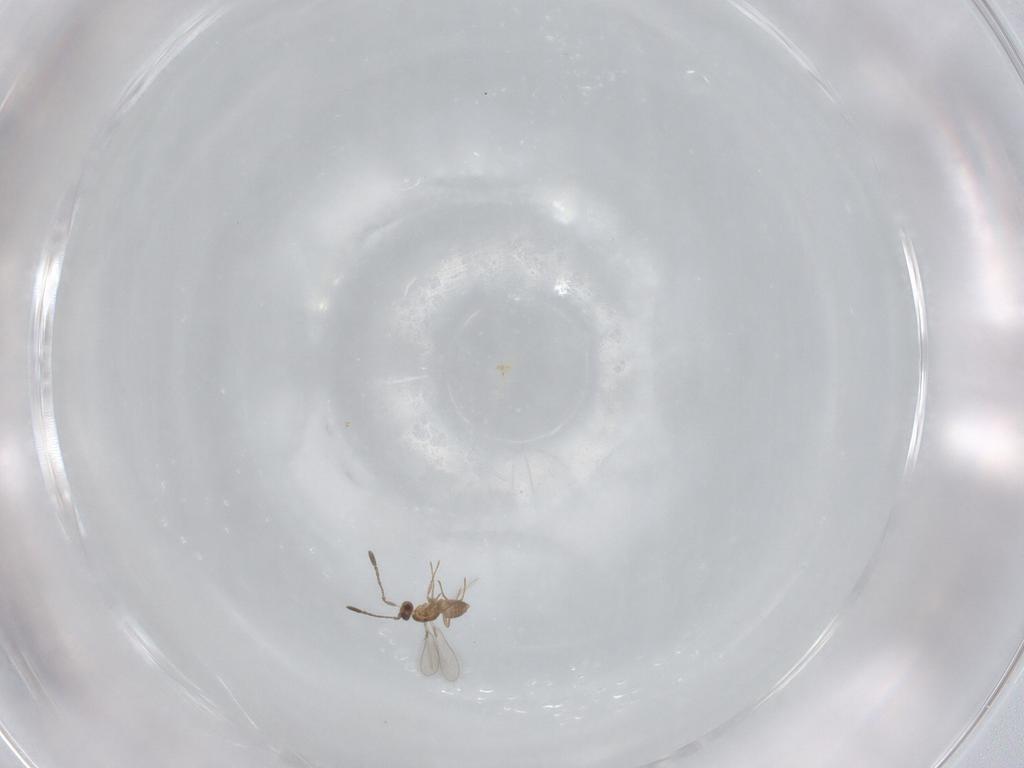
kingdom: Animalia
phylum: Arthropoda
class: Insecta
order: Hymenoptera
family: Mymaridae
